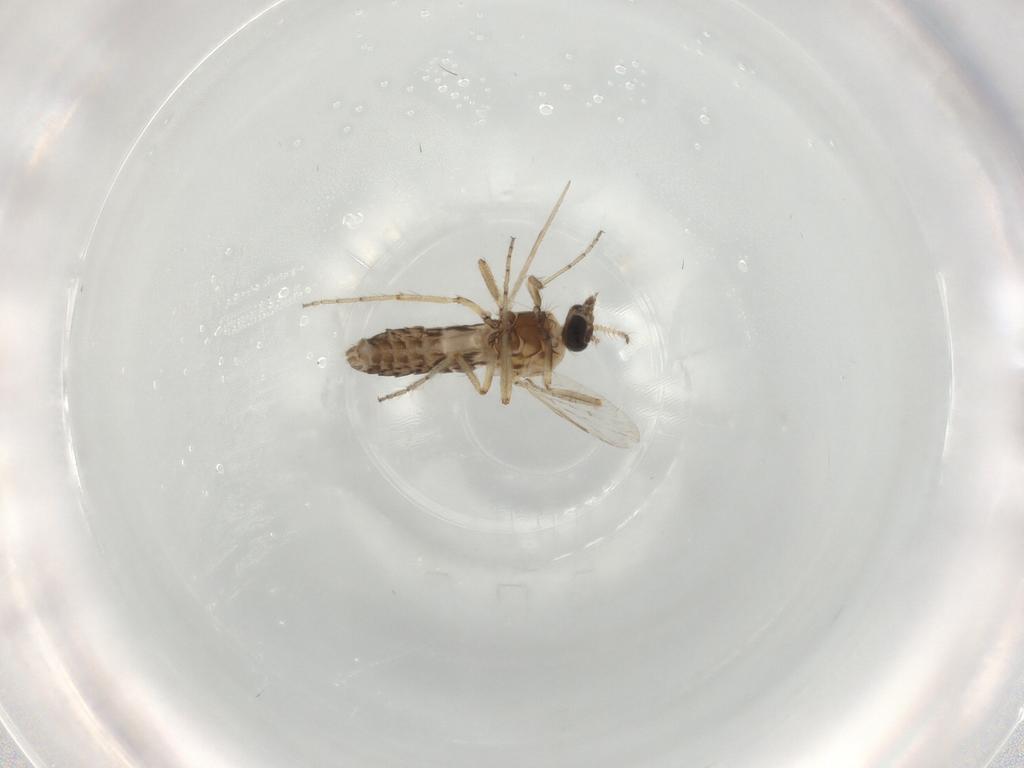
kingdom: Animalia
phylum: Arthropoda
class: Insecta
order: Diptera
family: Ceratopogonidae
